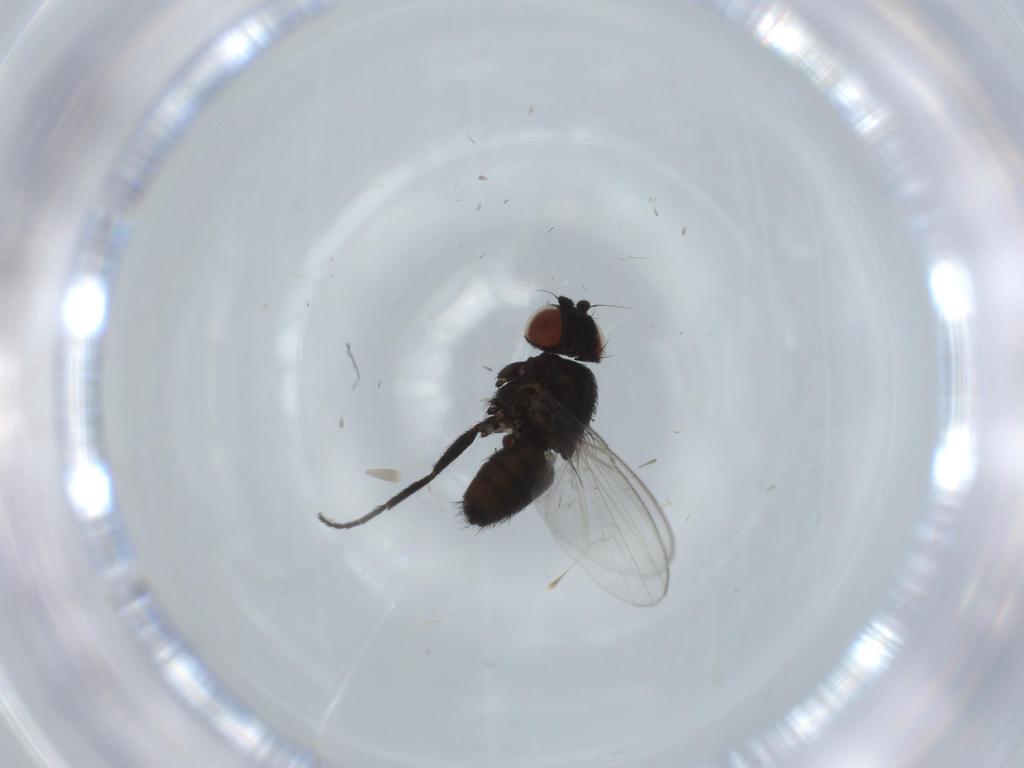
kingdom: Animalia
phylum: Arthropoda
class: Insecta
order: Diptera
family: Milichiidae
